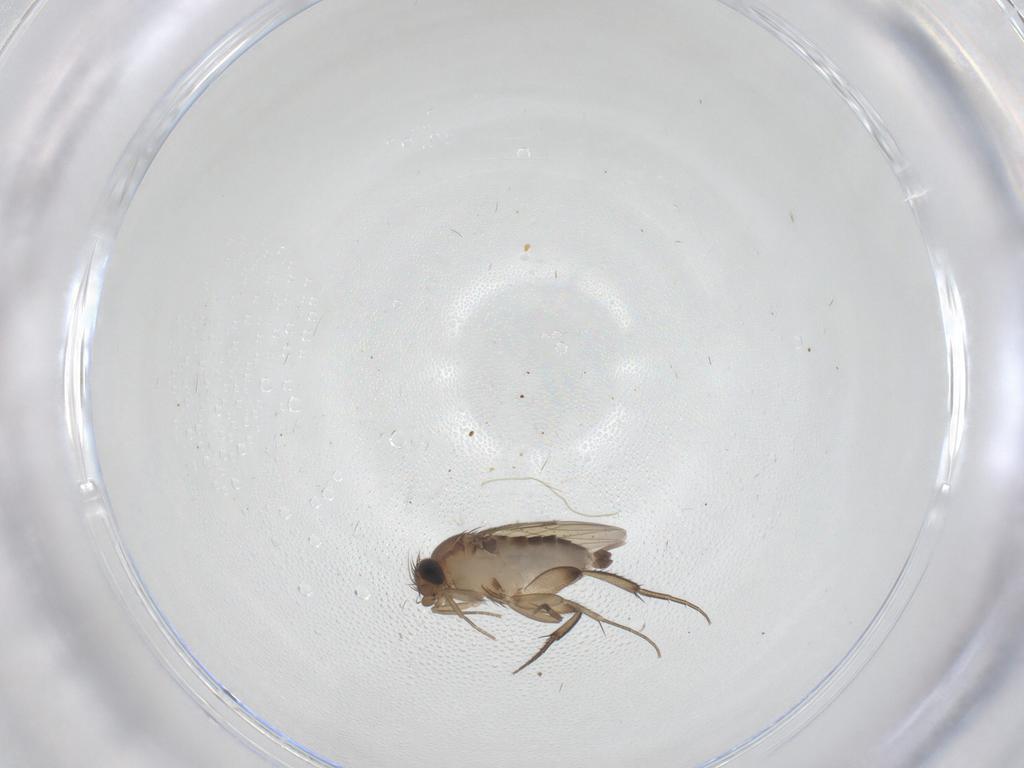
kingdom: Animalia
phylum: Arthropoda
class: Insecta
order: Diptera
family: Phoridae
